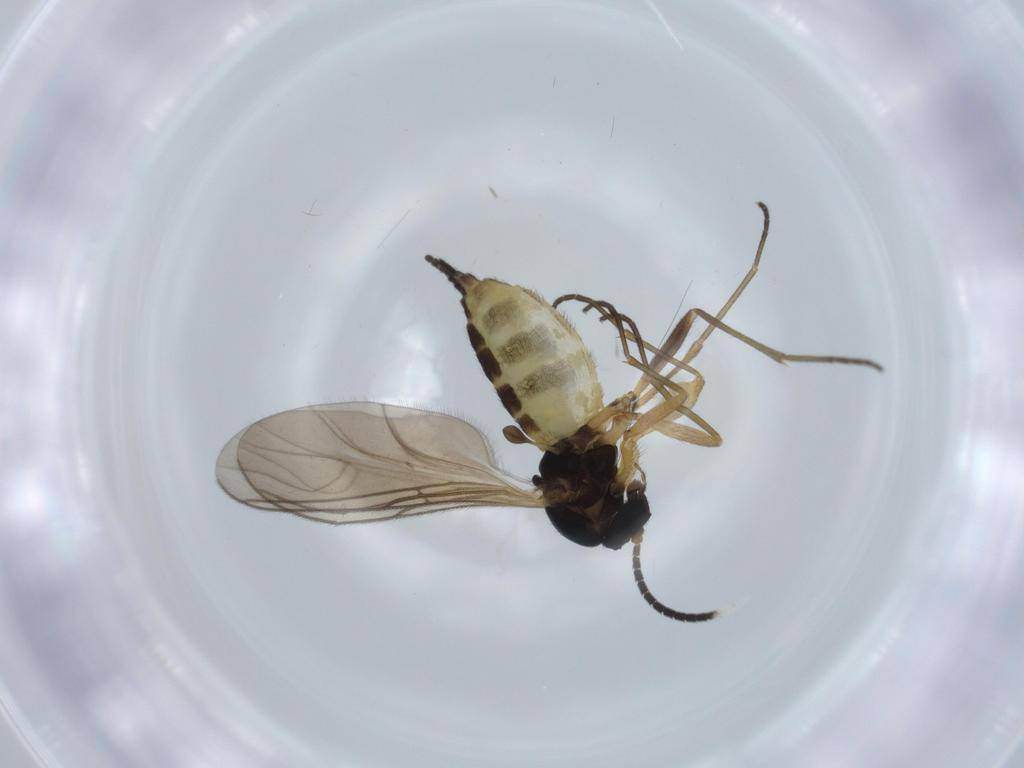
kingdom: Animalia
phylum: Arthropoda
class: Insecta
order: Diptera
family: Sciaridae
